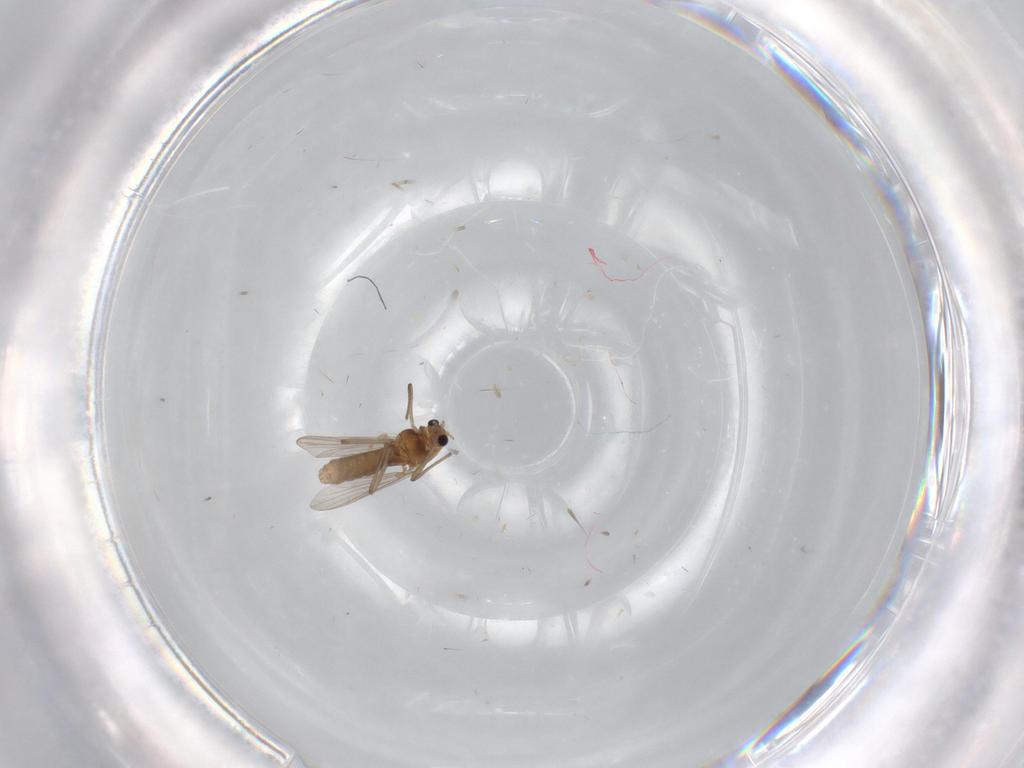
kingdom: Animalia
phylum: Arthropoda
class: Insecta
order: Diptera
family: Chironomidae
